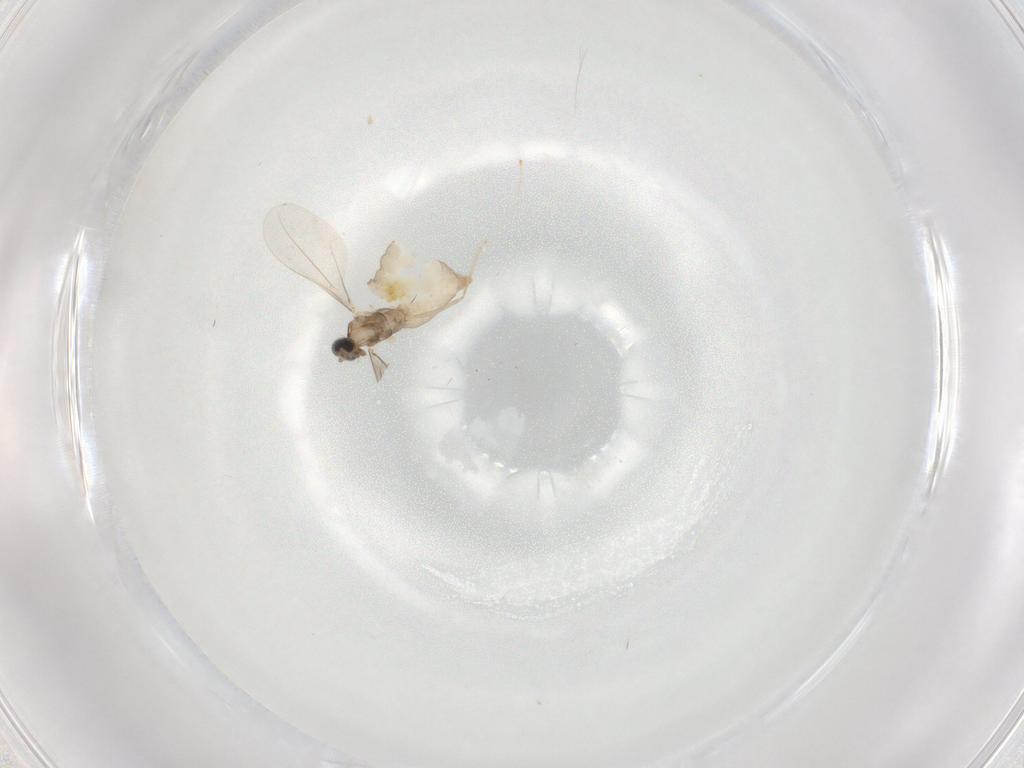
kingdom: Animalia
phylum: Arthropoda
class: Insecta
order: Diptera
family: Cecidomyiidae
